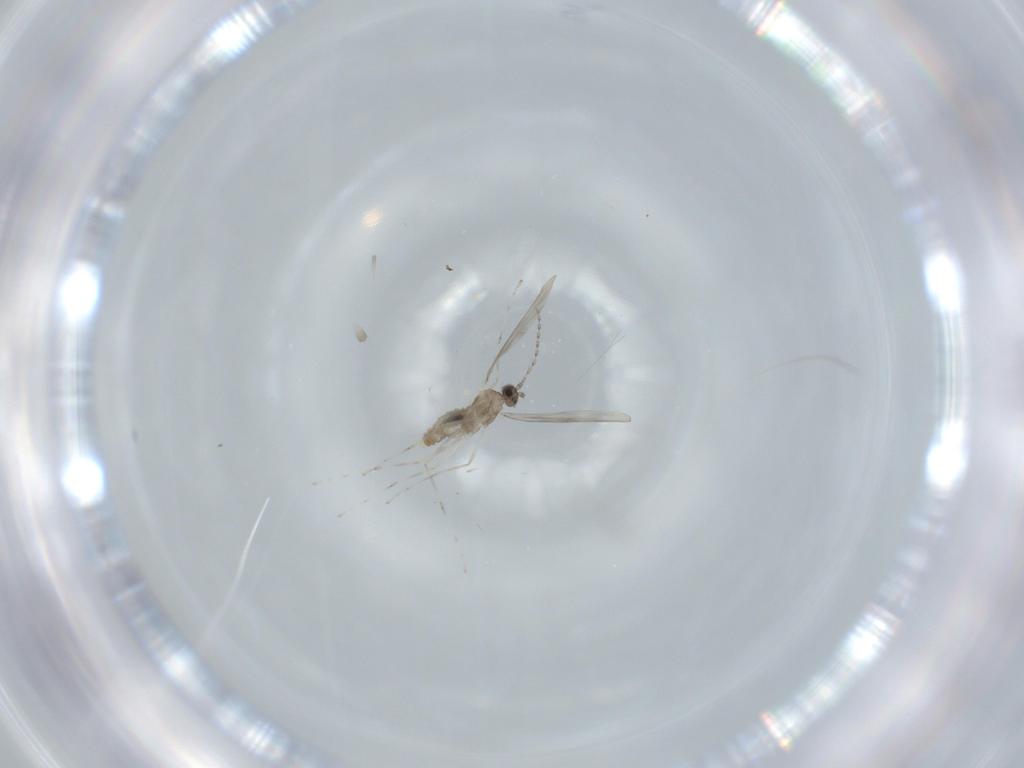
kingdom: Animalia
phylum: Arthropoda
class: Insecta
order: Diptera
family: Cecidomyiidae
